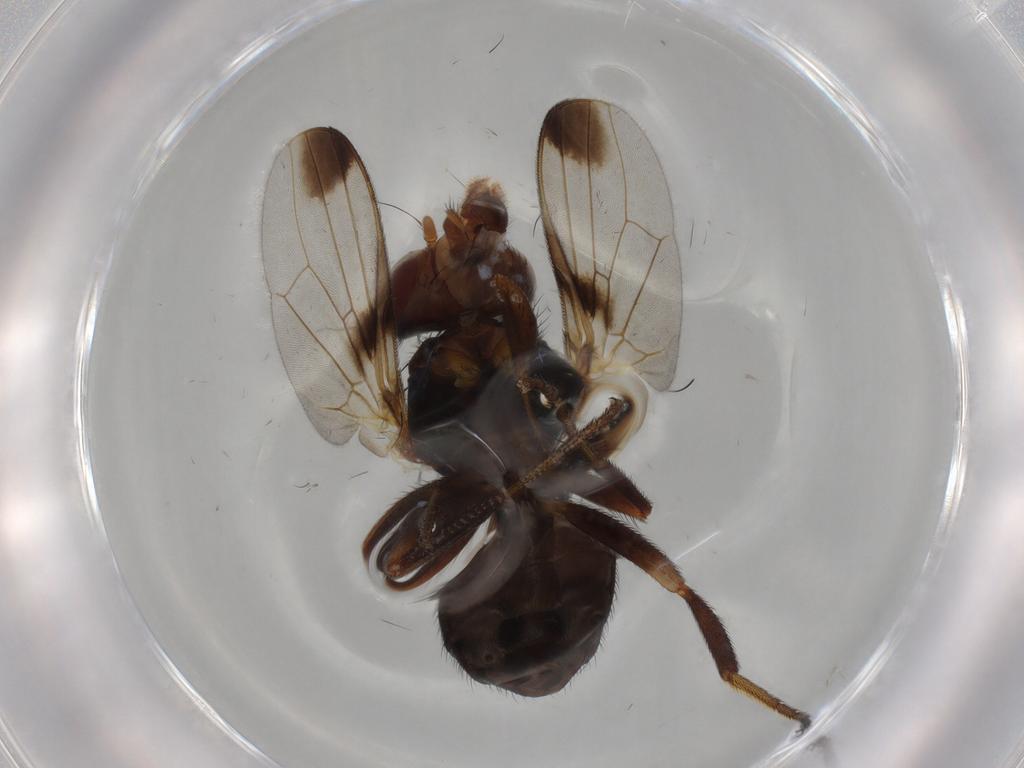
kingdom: Animalia
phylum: Arthropoda
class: Insecta
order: Diptera
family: Ulidiidae
